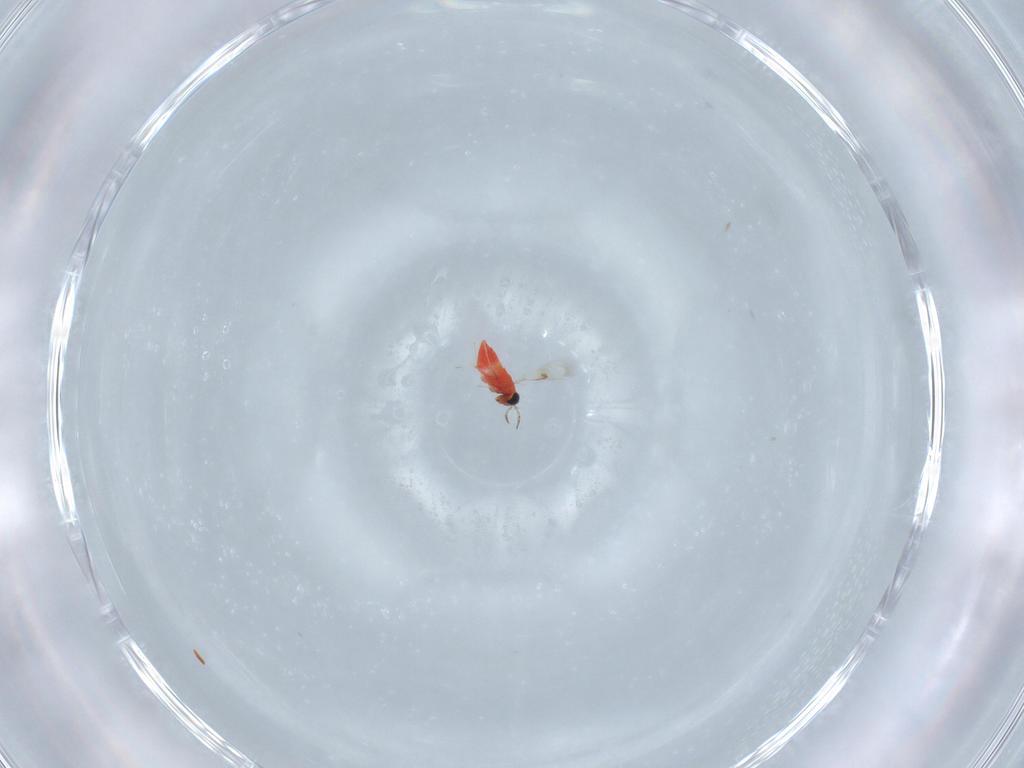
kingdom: Animalia
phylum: Arthropoda
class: Insecta
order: Hymenoptera
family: Trichogrammatidae
